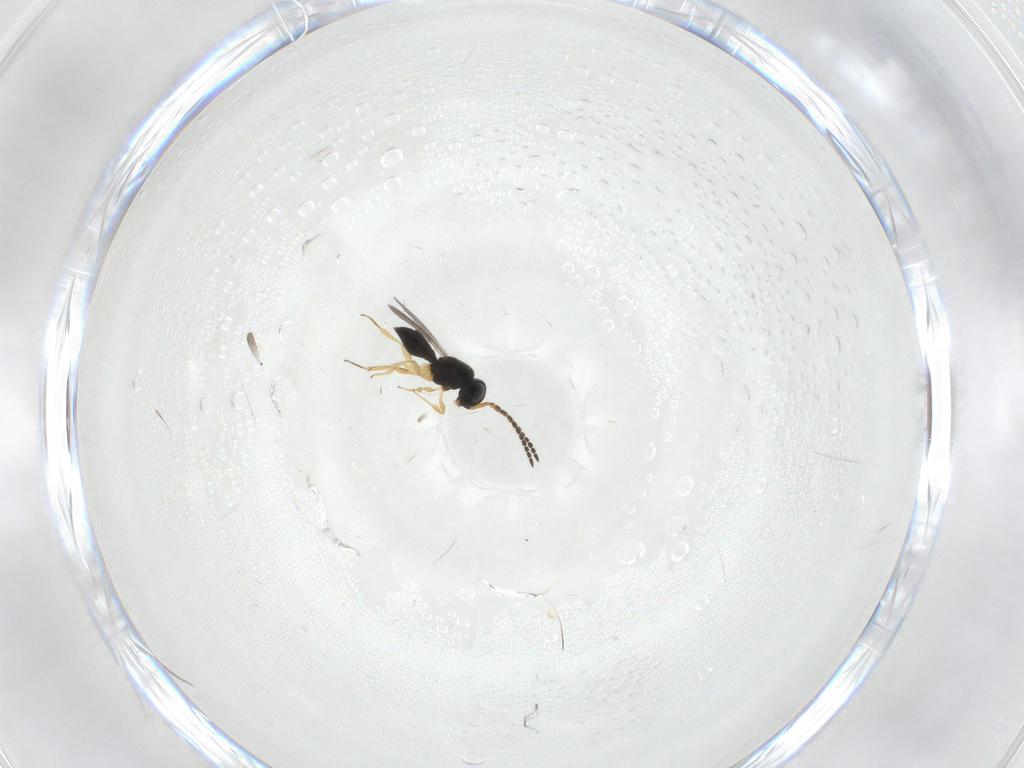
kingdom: Animalia
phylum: Arthropoda
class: Insecta
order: Hymenoptera
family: Scelionidae
